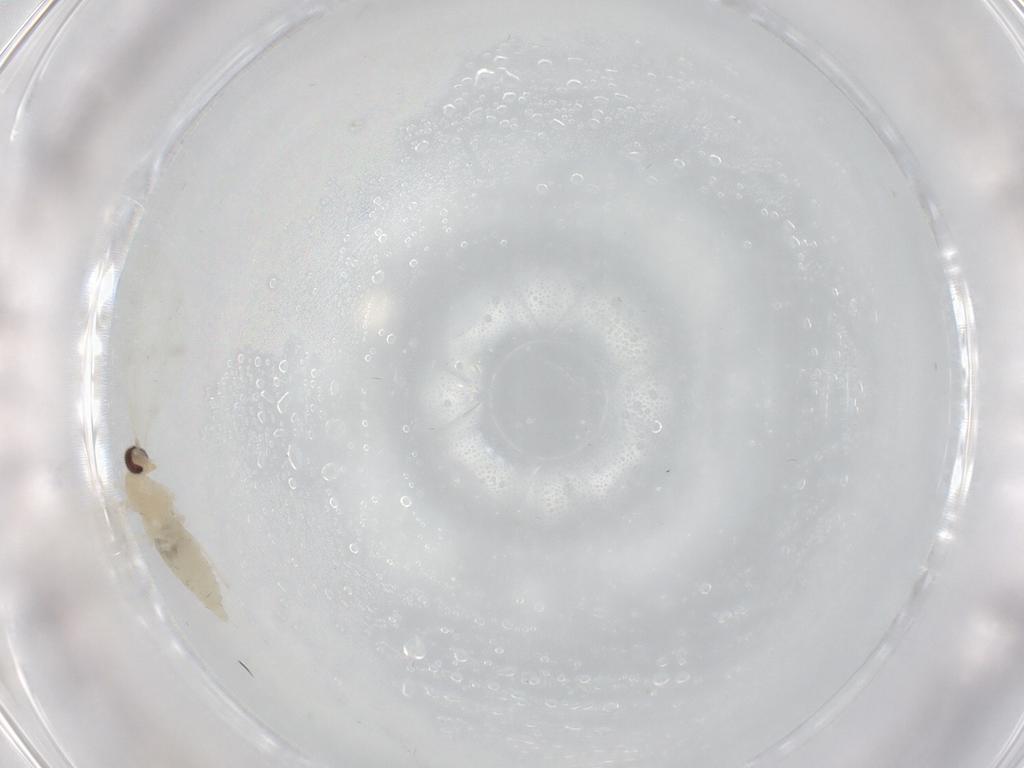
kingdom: Animalia
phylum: Arthropoda
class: Insecta
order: Diptera
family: Cecidomyiidae
